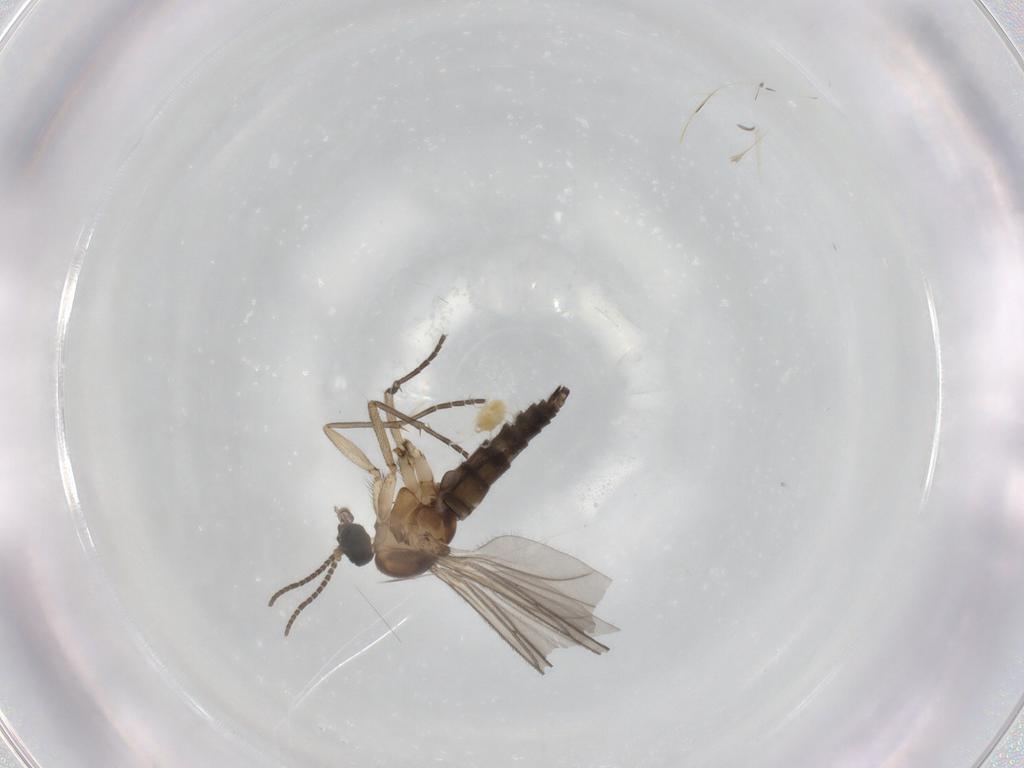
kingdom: Animalia
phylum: Arthropoda
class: Insecta
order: Diptera
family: Sciaridae
